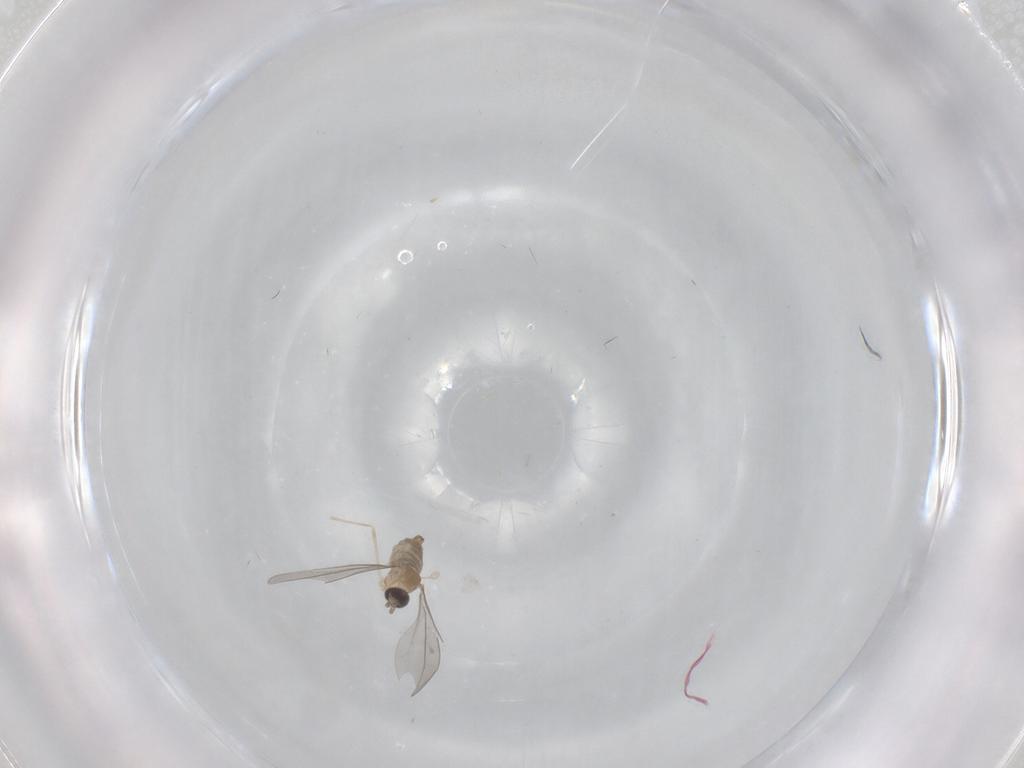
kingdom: Animalia
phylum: Arthropoda
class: Insecta
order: Diptera
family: Cecidomyiidae
